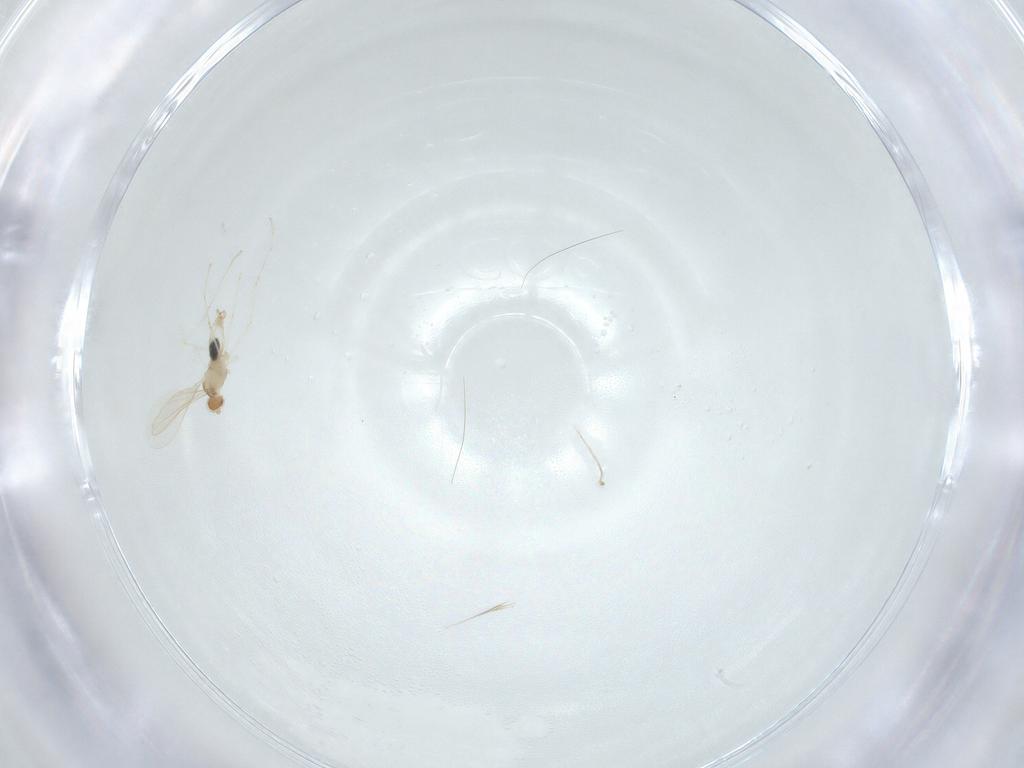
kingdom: Animalia
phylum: Arthropoda
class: Insecta
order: Diptera
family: Cecidomyiidae
